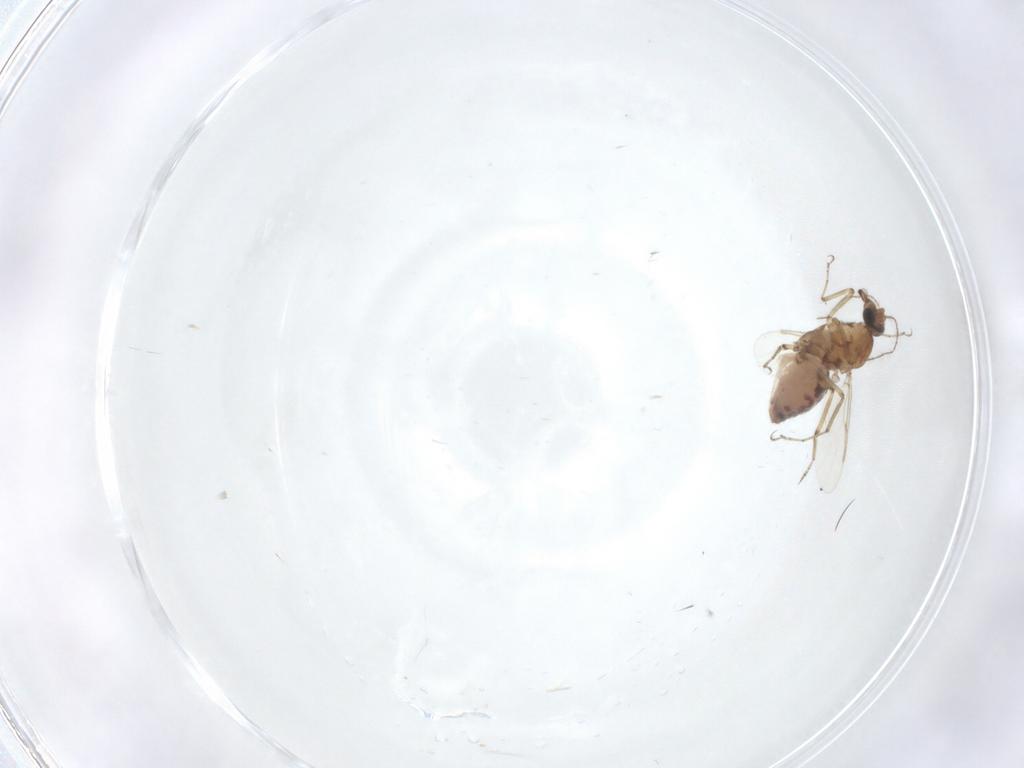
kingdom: Animalia
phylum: Arthropoda
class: Insecta
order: Diptera
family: Ceratopogonidae
